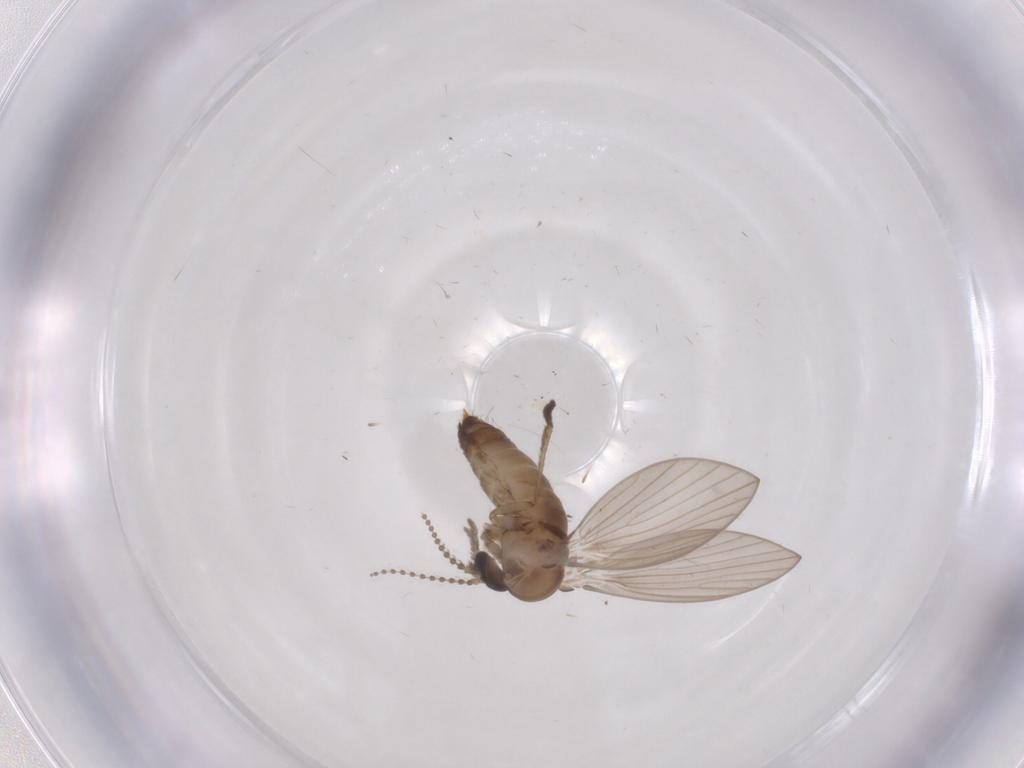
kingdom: Animalia
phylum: Arthropoda
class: Insecta
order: Diptera
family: Psychodidae
